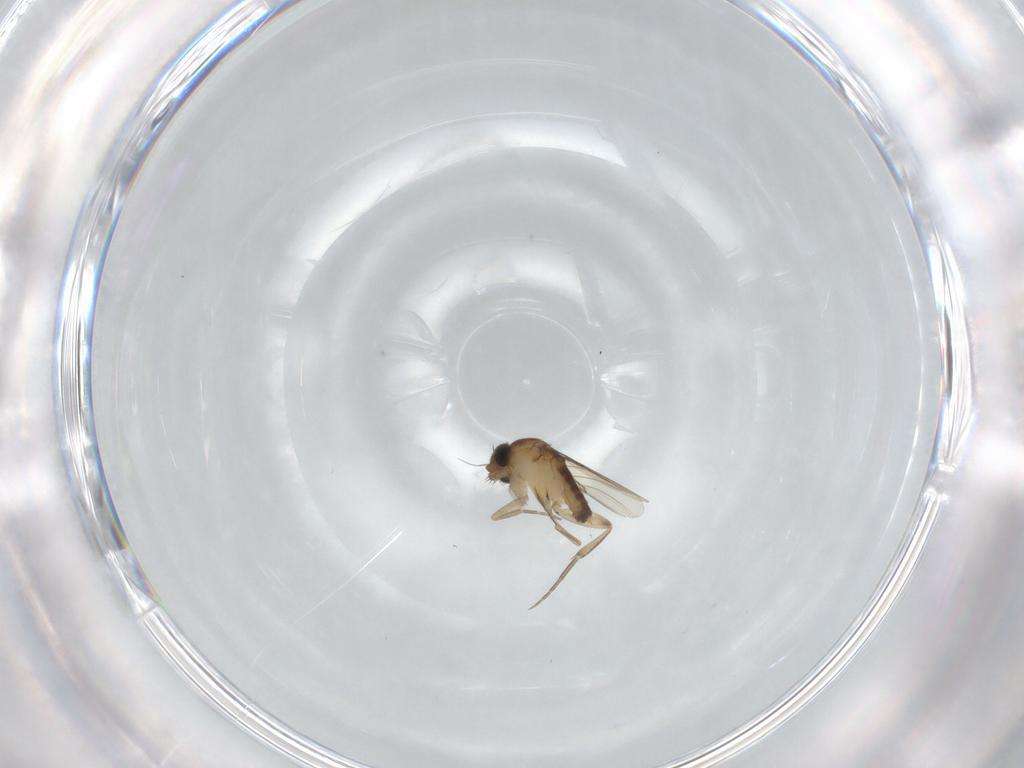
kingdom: Animalia
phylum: Arthropoda
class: Insecta
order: Diptera
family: Phoridae
